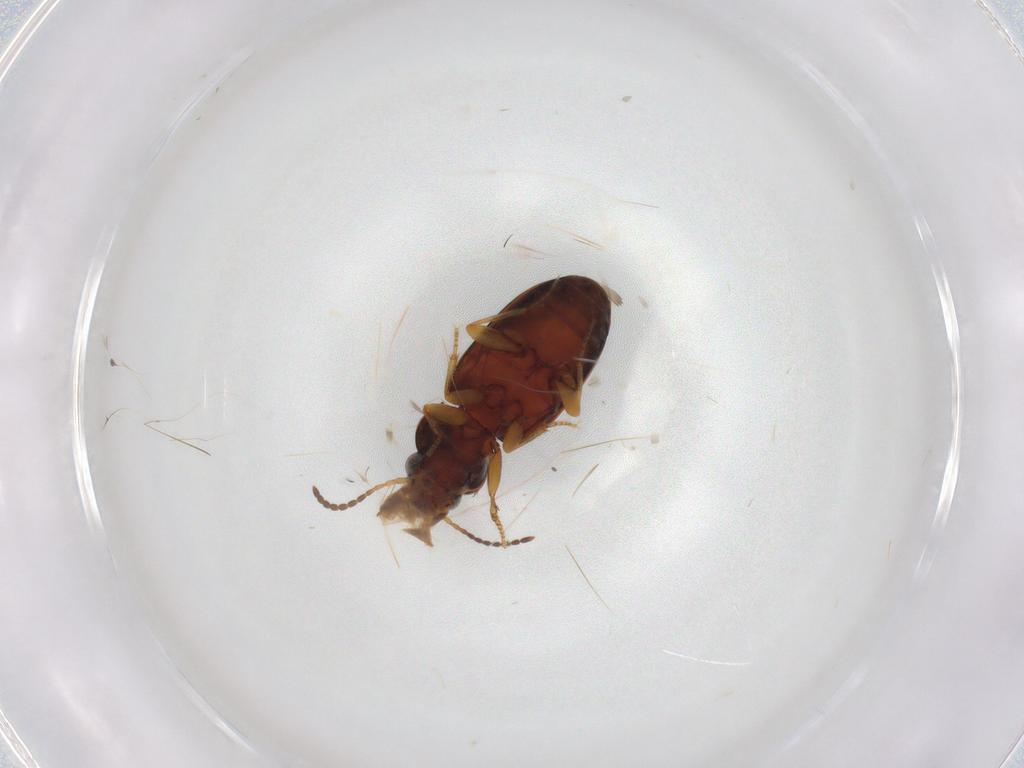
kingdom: Animalia
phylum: Arthropoda
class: Insecta
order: Coleoptera
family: Carabidae
